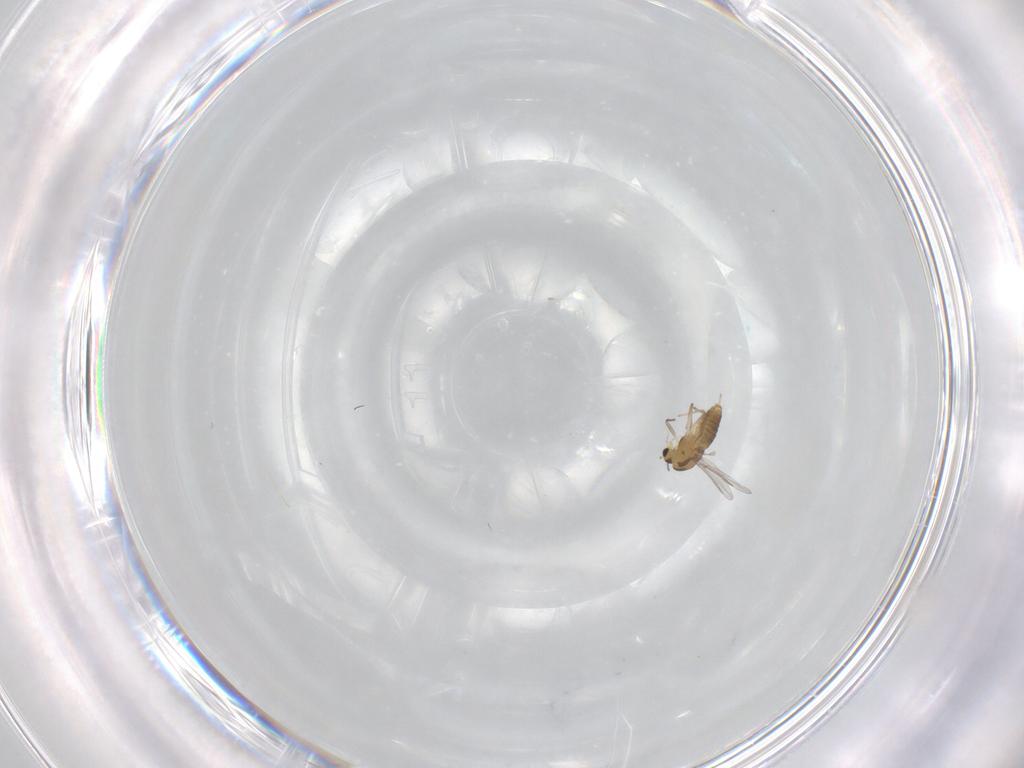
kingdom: Animalia
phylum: Arthropoda
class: Insecta
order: Diptera
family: Chironomidae
